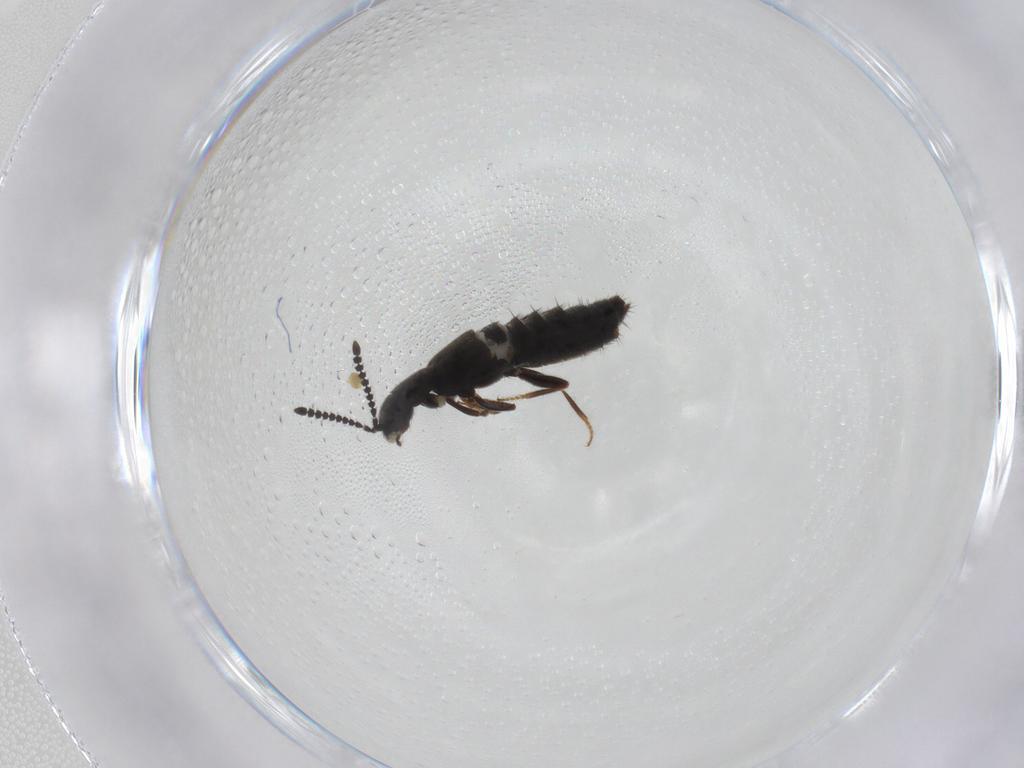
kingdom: Animalia
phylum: Arthropoda
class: Insecta
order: Coleoptera
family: Staphylinidae
